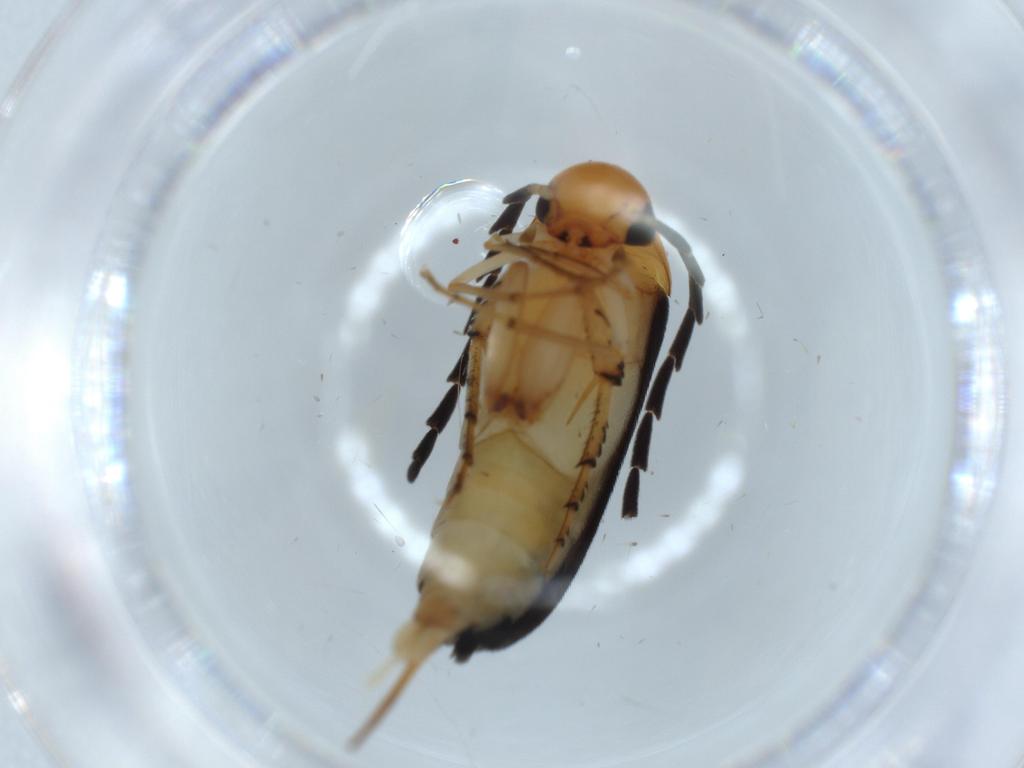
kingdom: Animalia
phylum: Arthropoda
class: Insecta
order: Coleoptera
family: Mordellidae
